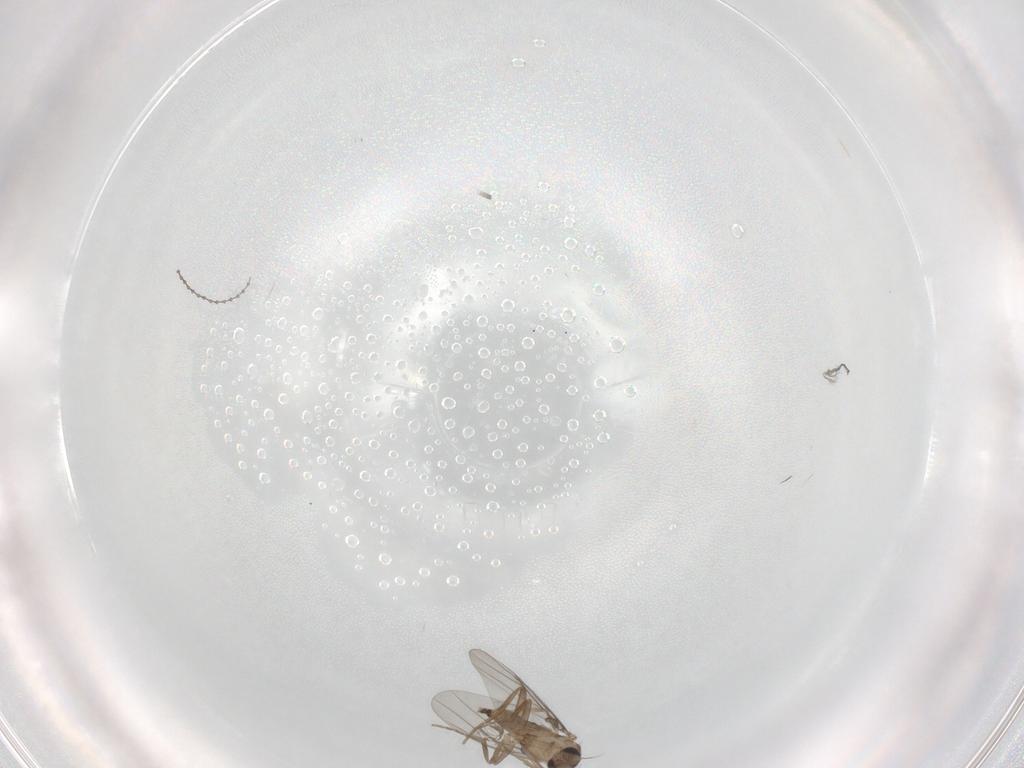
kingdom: Animalia
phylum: Arthropoda
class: Insecta
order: Diptera
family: Chironomidae
